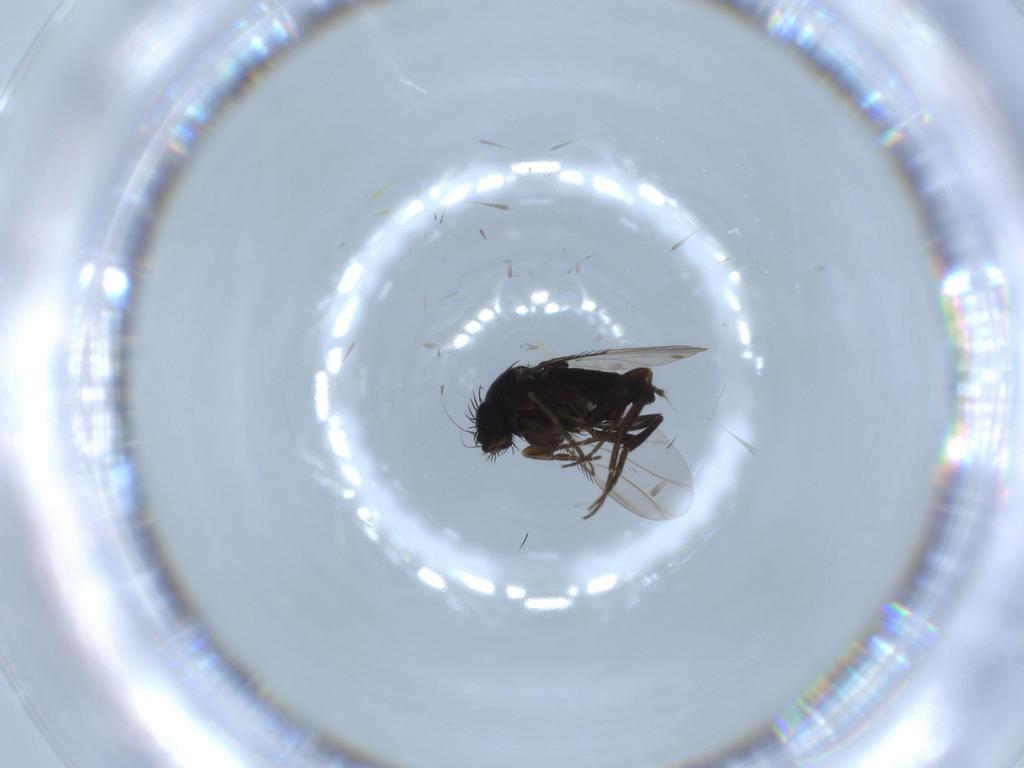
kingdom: Animalia
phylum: Arthropoda
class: Insecta
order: Diptera
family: Phoridae
